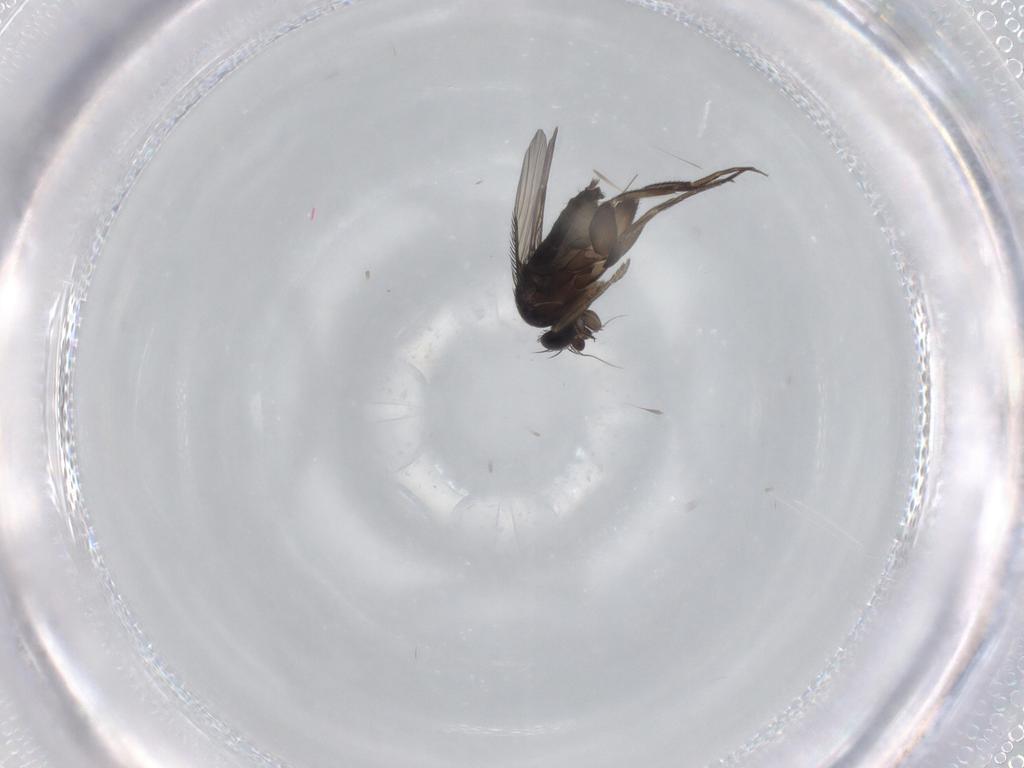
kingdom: Animalia
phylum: Arthropoda
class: Insecta
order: Diptera
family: Phoridae
